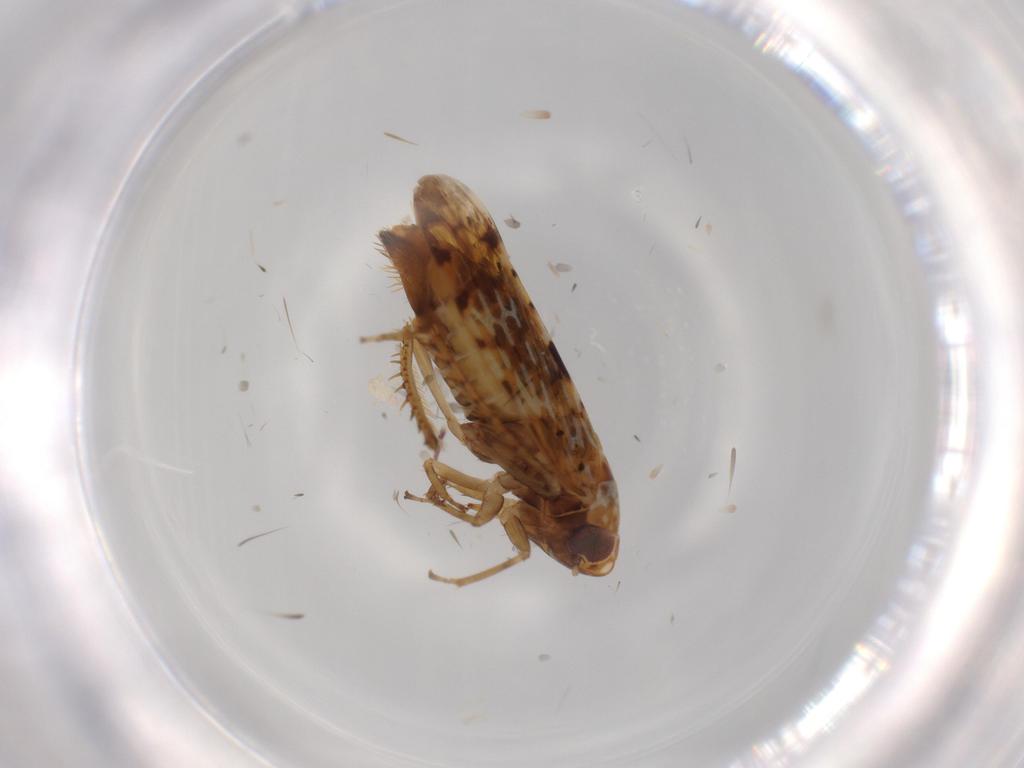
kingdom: Animalia
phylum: Arthropoda
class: Insecta
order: Hemiptera
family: Cicadellidae
